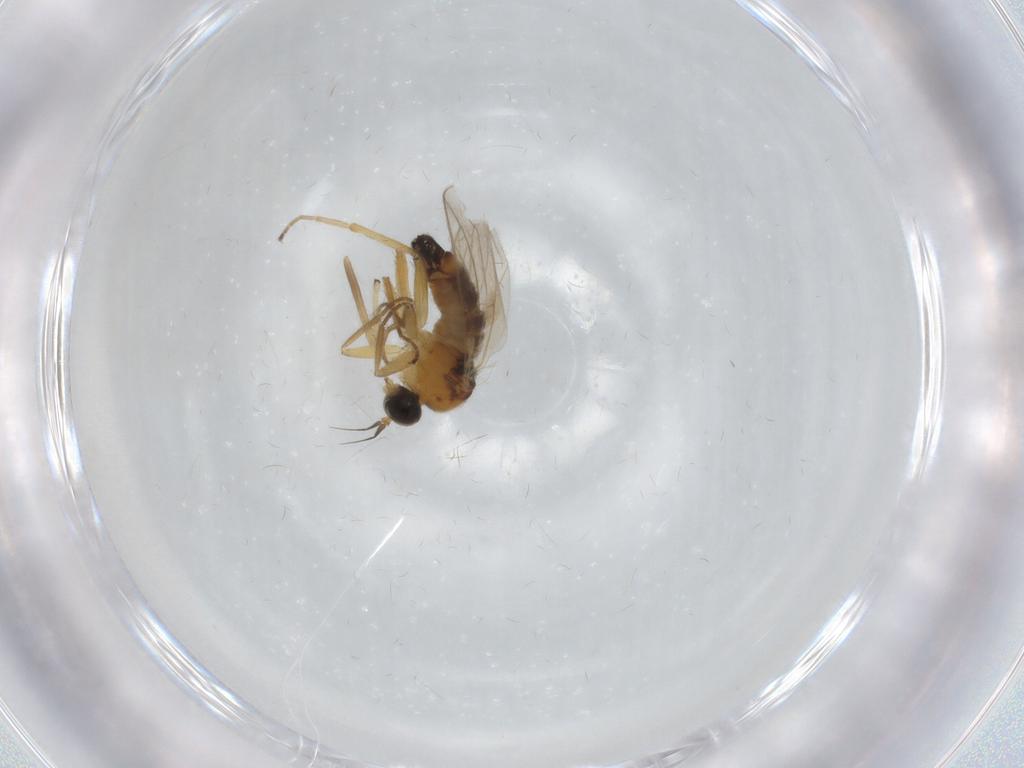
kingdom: Animalia
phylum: Arthropoda
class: Insecta
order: Diptera
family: Hybotidae
